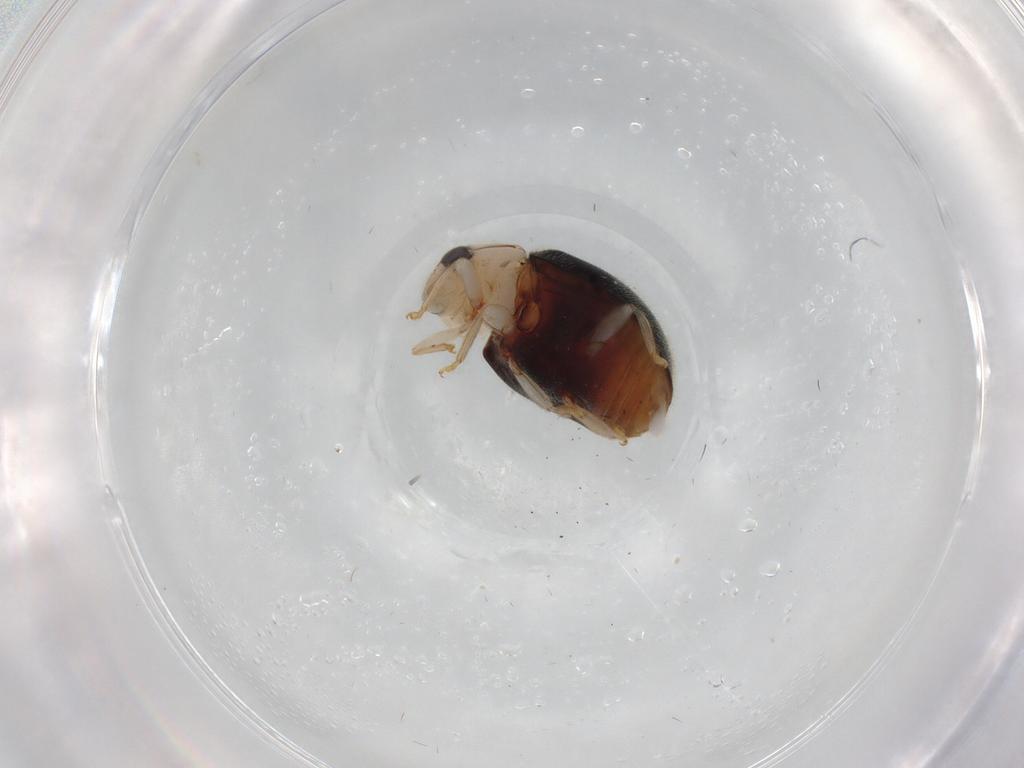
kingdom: Animalia
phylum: Arthropoda
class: Insecta
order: Coleoptera
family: Coccinellidae
